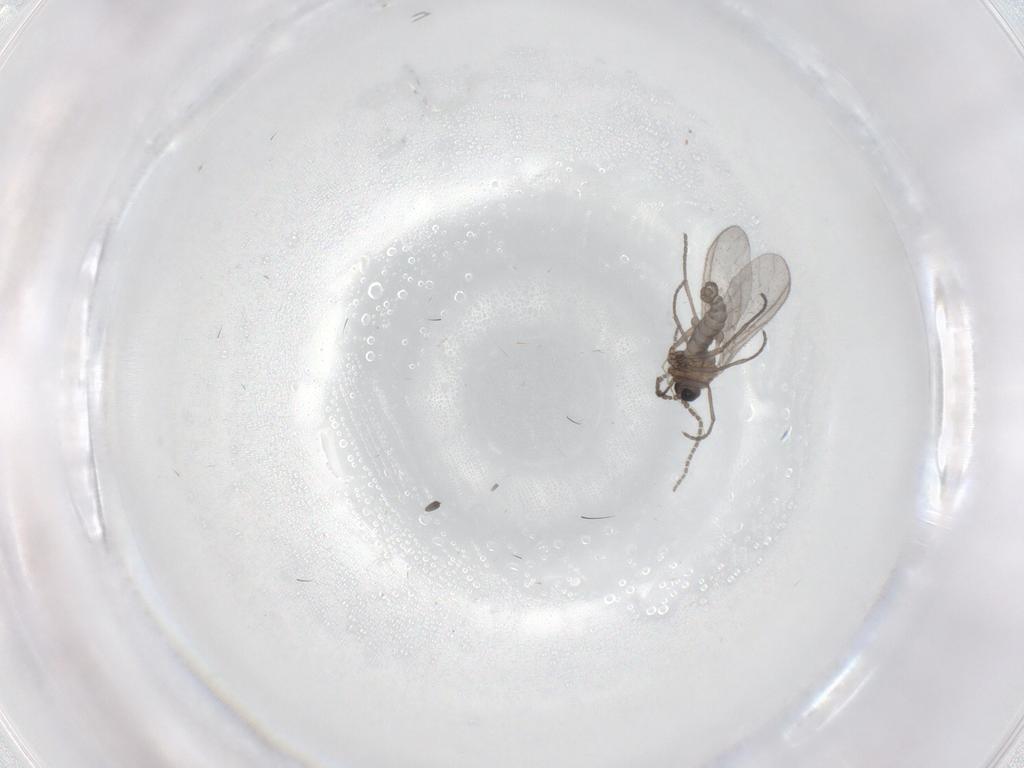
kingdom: Animalia
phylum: Arthropoda
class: Insecta
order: Diptera
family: Sciaridae
